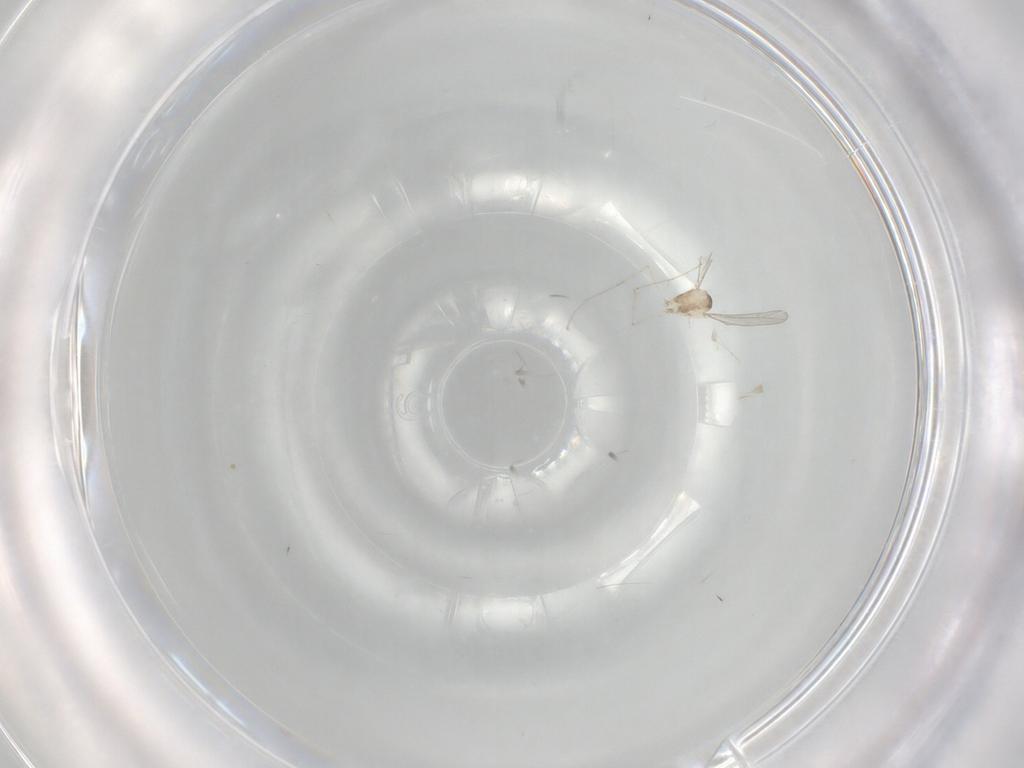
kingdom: Animalia
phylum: Arthropoda
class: Insecta
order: Diptera
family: Cecidomyiidae
